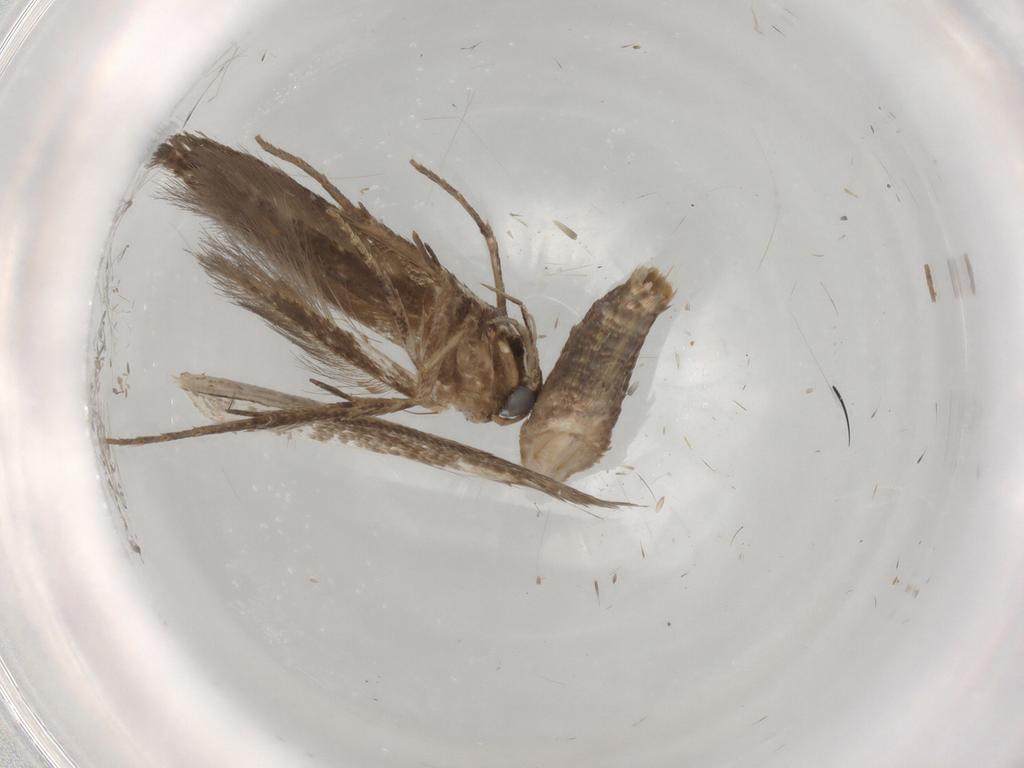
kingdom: Animalia
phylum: Arthropoda
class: Insecta
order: Lepidoptera
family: Cosmopterigidae
